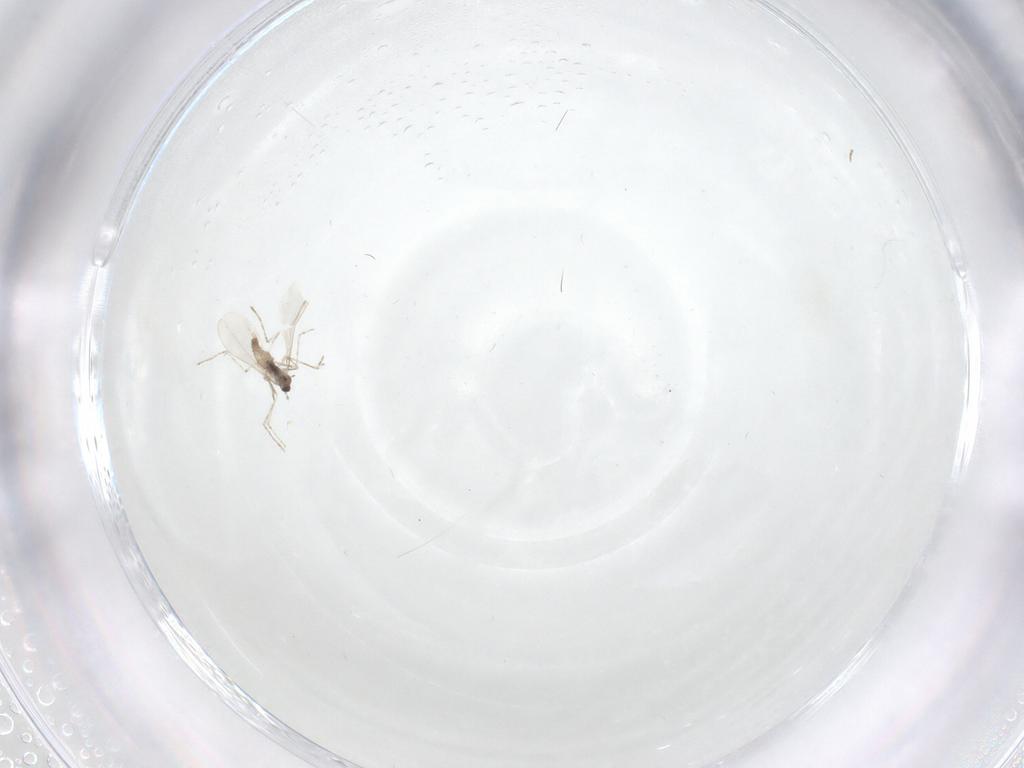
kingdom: Animalia
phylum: Arthropoda
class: Insecta
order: Diptera
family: Cecidomyiidae
